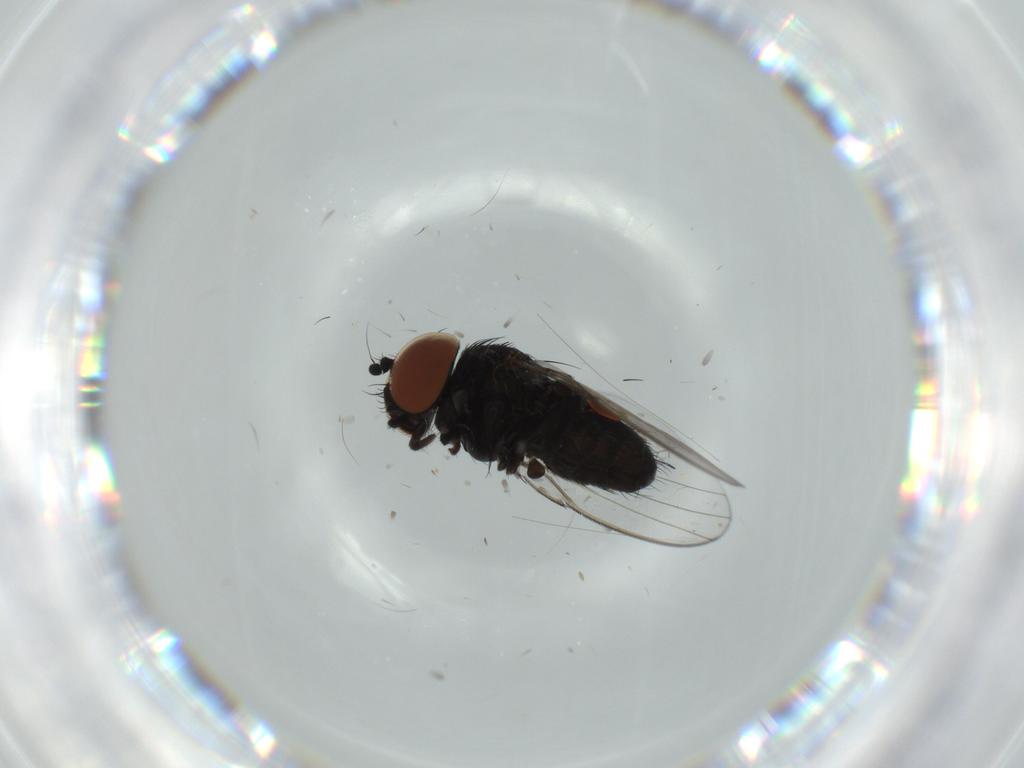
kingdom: Animalia
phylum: Arthropoda
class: Insecta
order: Diptera
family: Milichiidae
